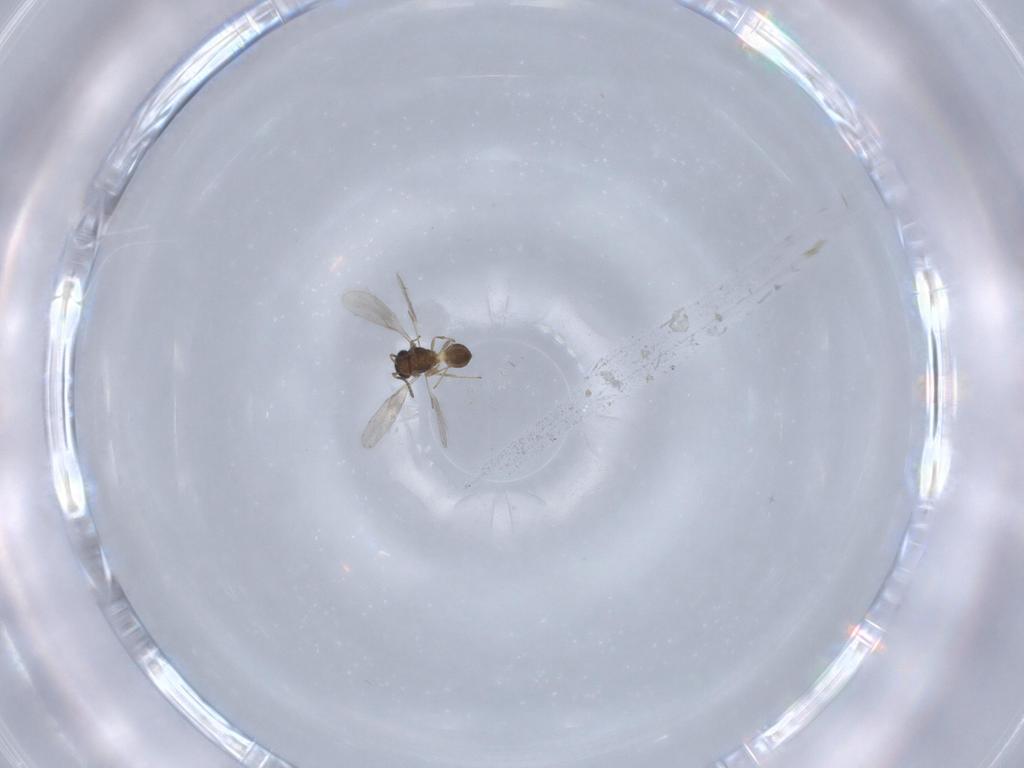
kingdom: Animalia
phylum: Arthropoda
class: Insecta
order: Hymenoptera
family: Scelionidae
